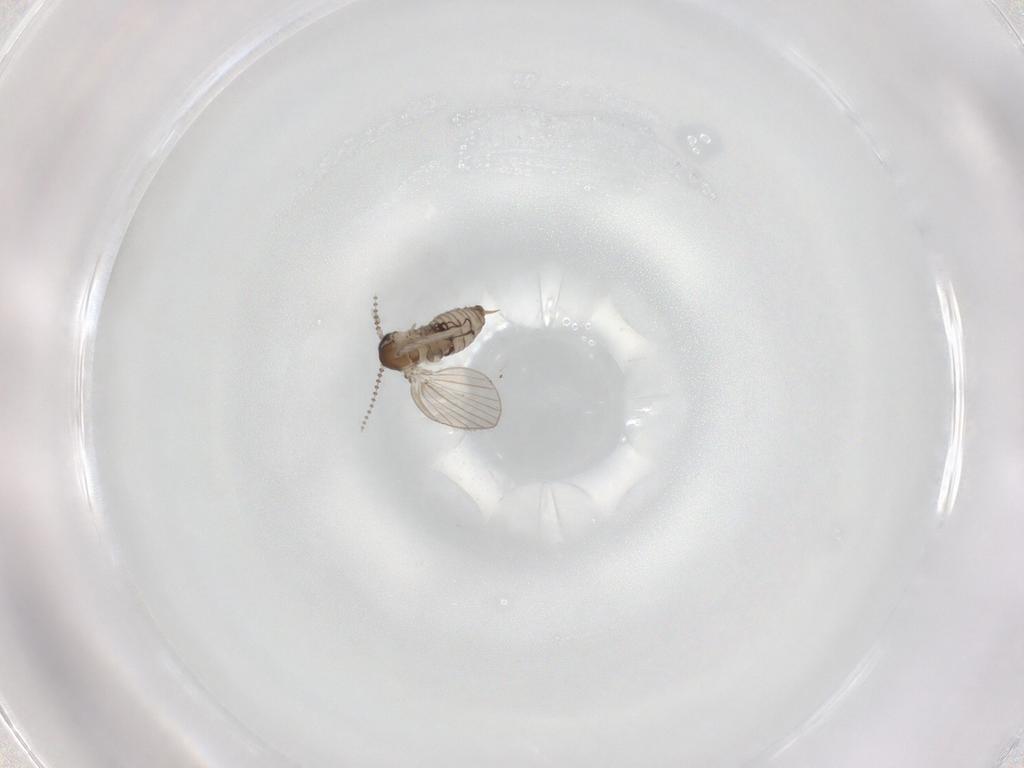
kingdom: Animalia
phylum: Arthropoda
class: Insecta
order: Diptera
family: Psychodidae
